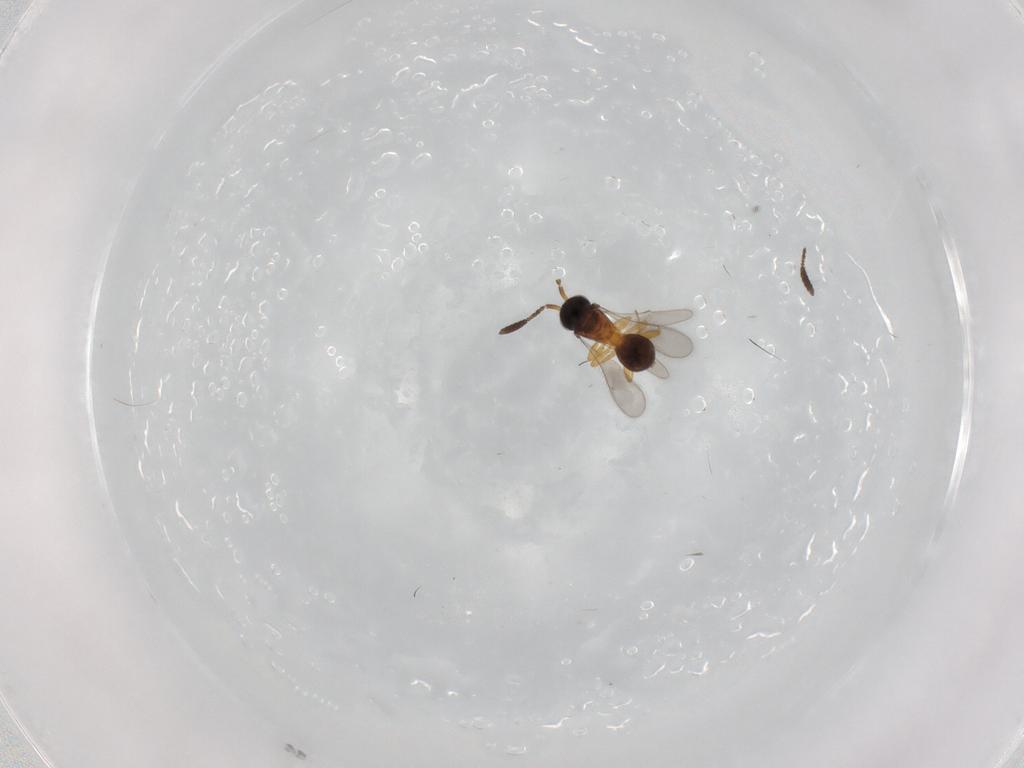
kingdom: Animalia
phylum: Arthropoda
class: Insecta
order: Hymenoptera
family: Scelionidae
